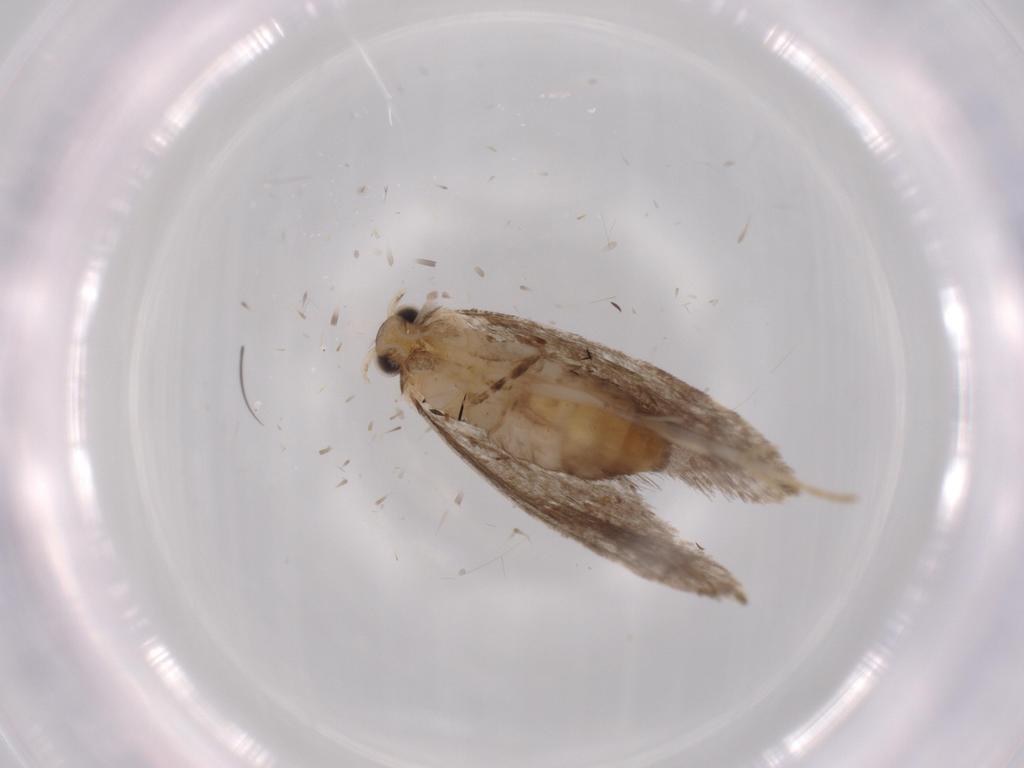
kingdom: Animalia
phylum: Arthropoda
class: Insecta
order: Lepidoptera
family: Tineidae
